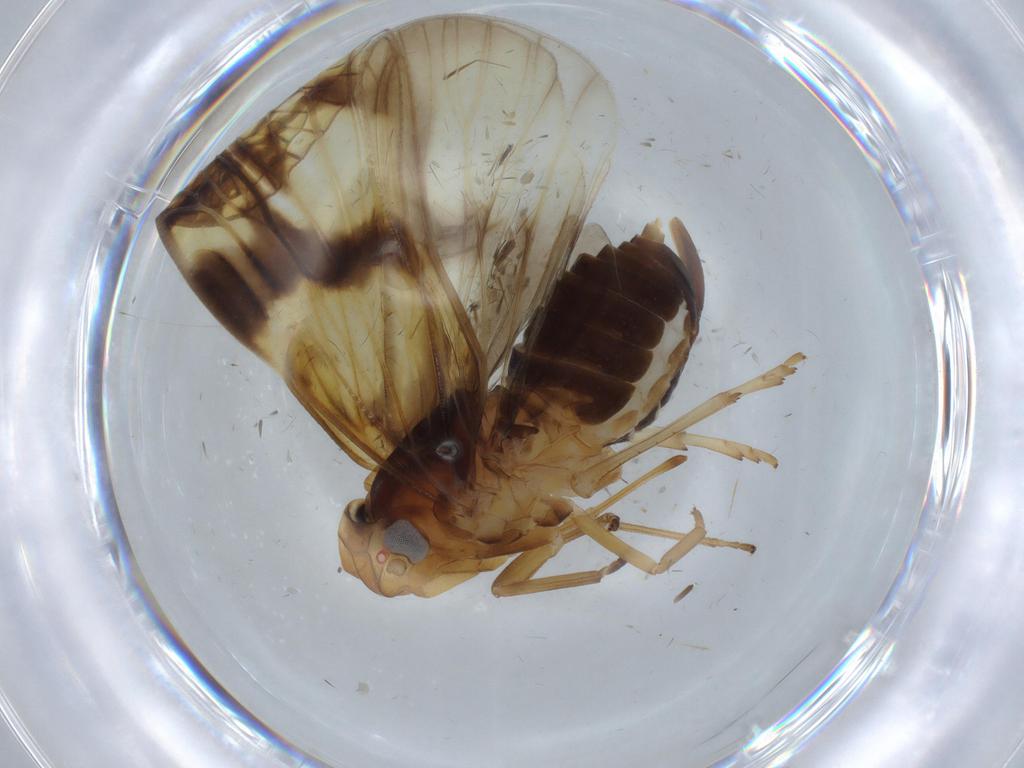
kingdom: Animalia
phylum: Arthropoda
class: Insecta
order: Hemiptera
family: Cixiidae
